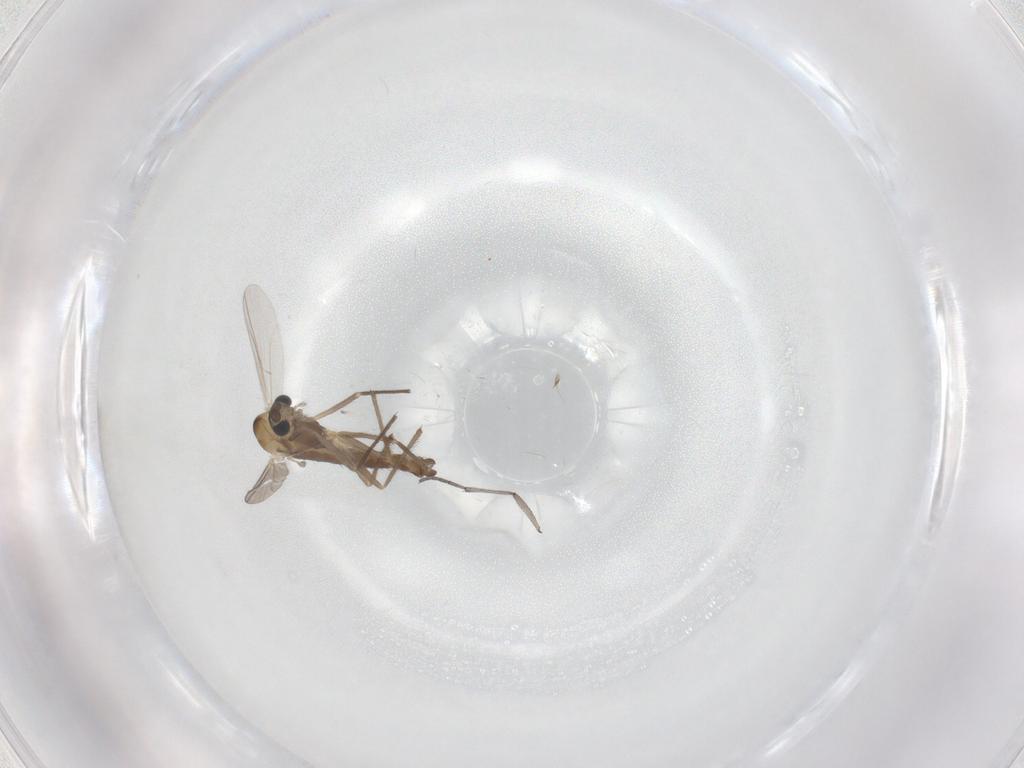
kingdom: Animalia
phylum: Arthropoda
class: Insecta
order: Diptera
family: Chironomidae
